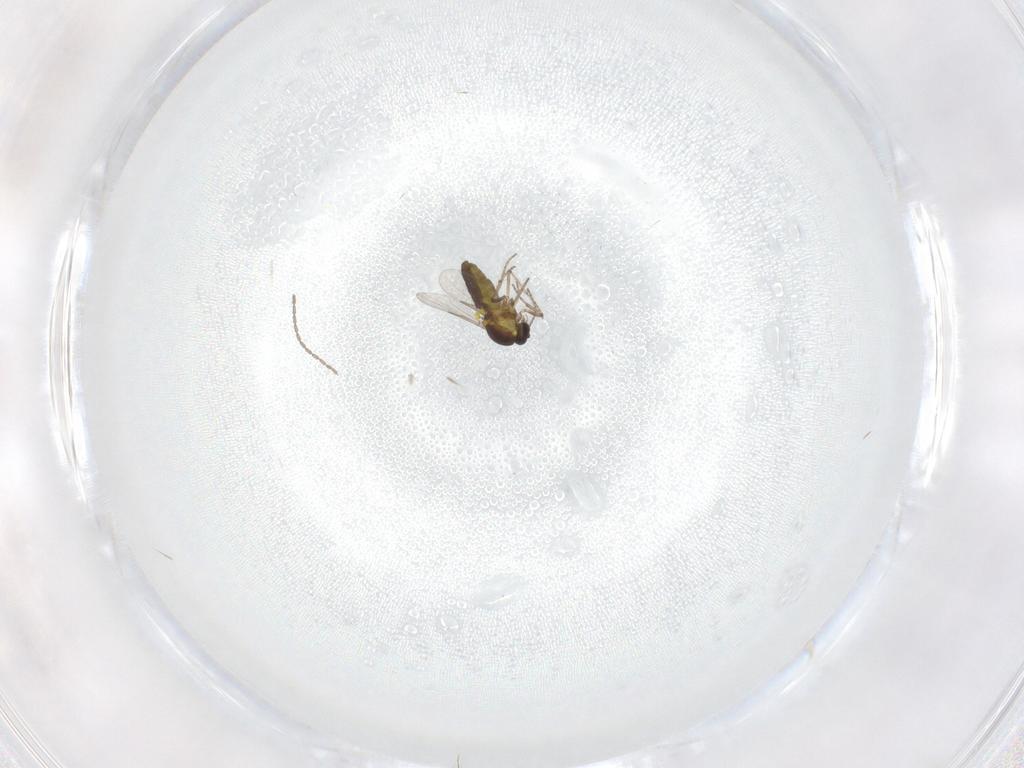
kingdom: Animalia
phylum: Arthropoda
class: Insecta
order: Diptera
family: Cecidomyiidae
